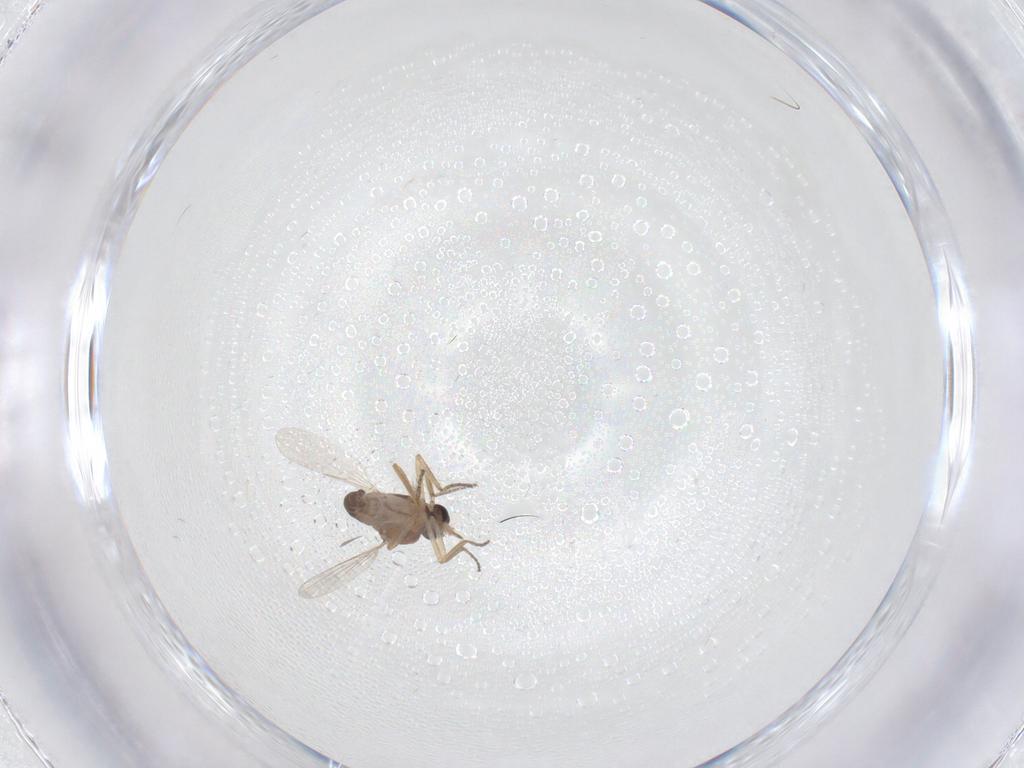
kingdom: Animalia
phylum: Arthropoda
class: Insecta
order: Diptera
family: Ceratopogonidae
